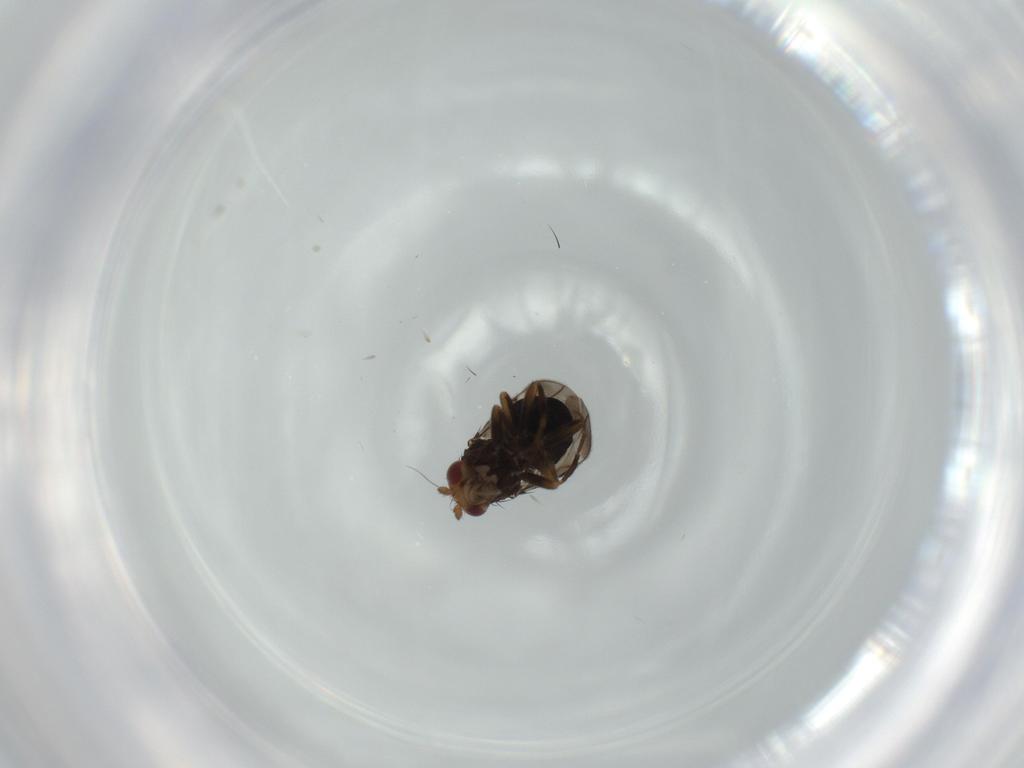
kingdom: Animalia
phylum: Arthropoda
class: Insecta
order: Diptera
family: Sphaeroceridae
